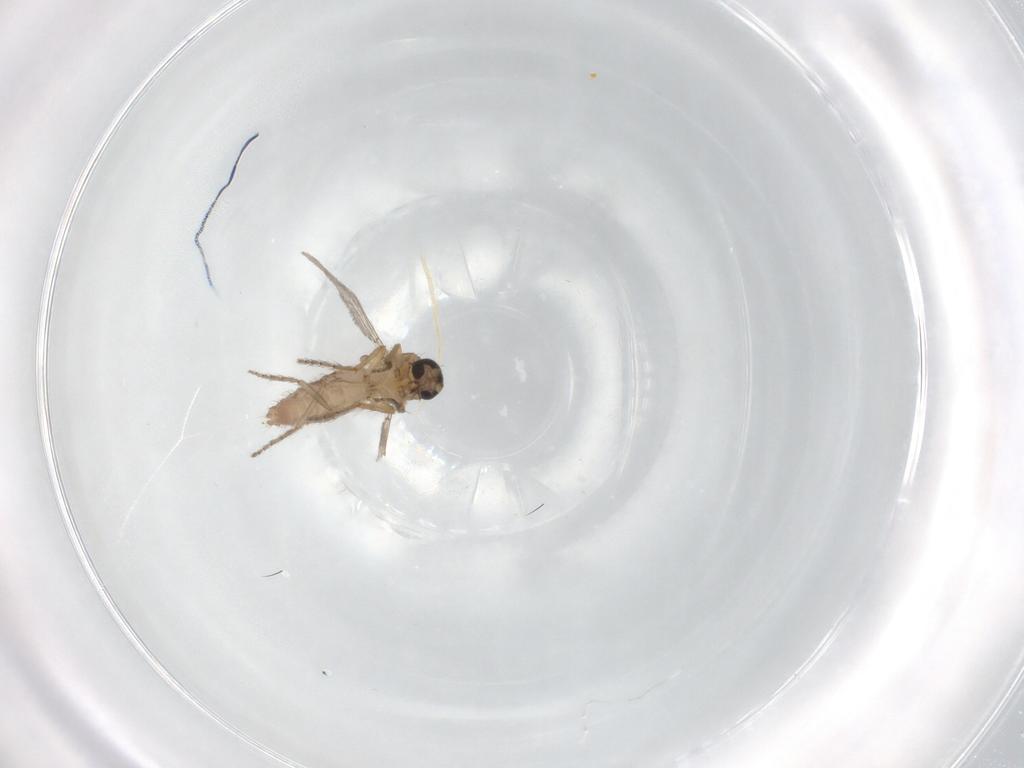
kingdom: Animalia
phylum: Arthropoda
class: Insecta
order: Diptera
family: Ceratopogonidae
